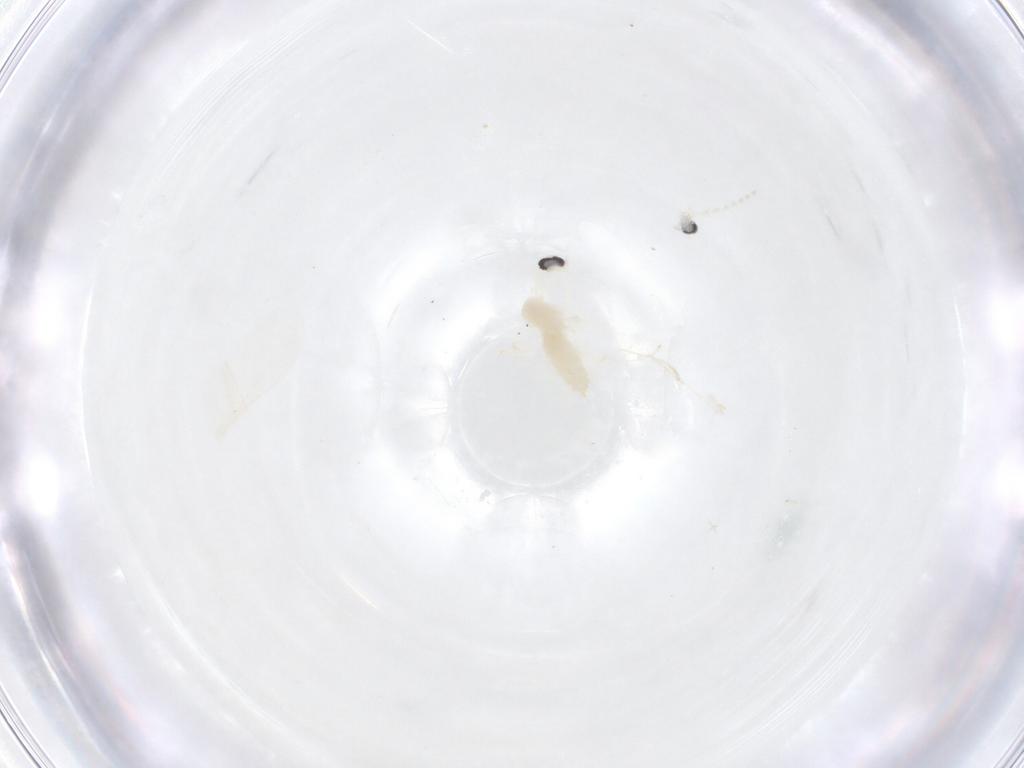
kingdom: Animalia
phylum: Arthropoda
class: Insecta
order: Diptera
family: Cecidomyiidae
